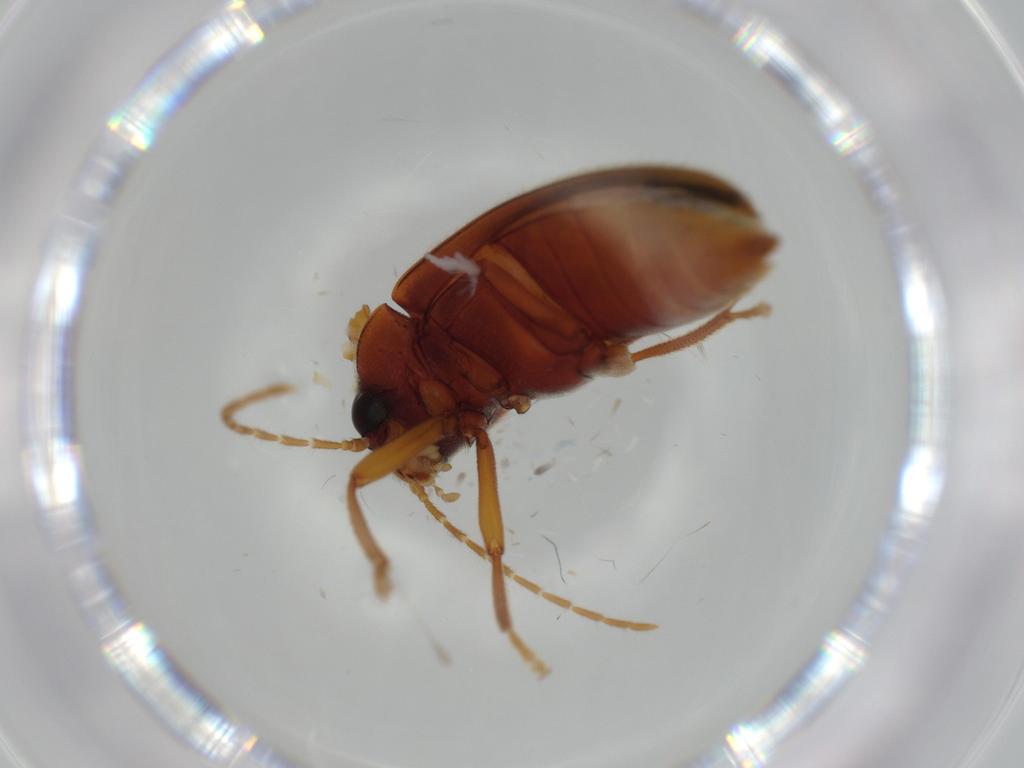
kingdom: Animalia
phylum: Arthropoda
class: Insecta
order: Coleoptera
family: Ptilodactylidae
